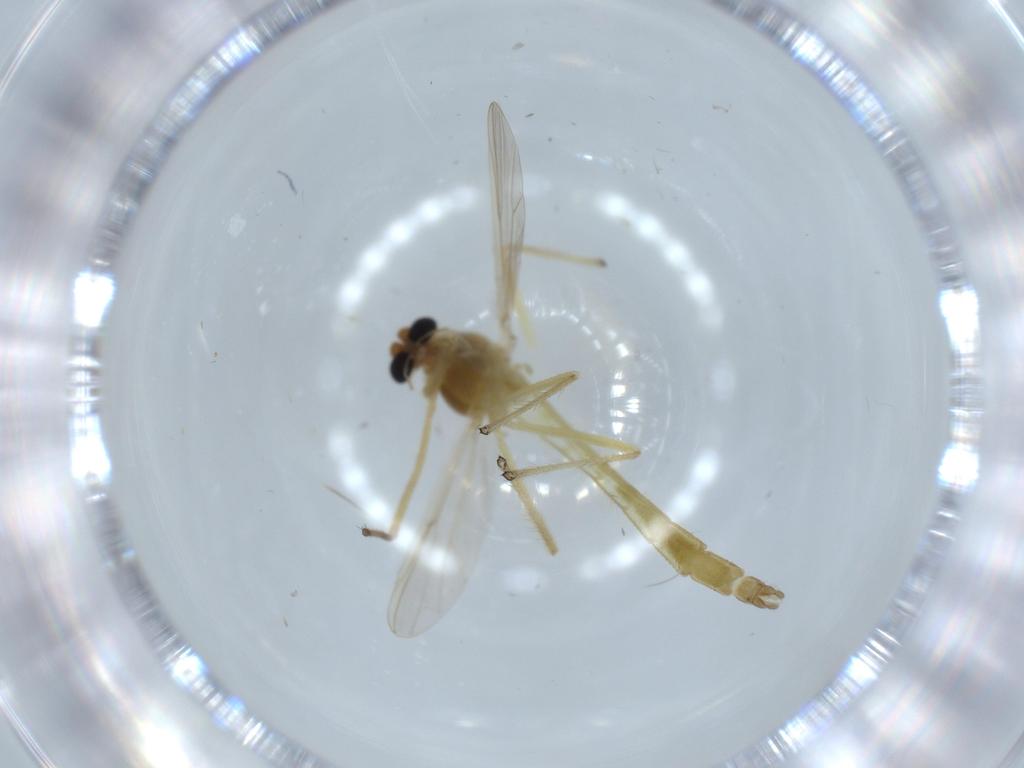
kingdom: Animalia
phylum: Arthropoda
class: Insecta
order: Diptera
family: Chironomidae
